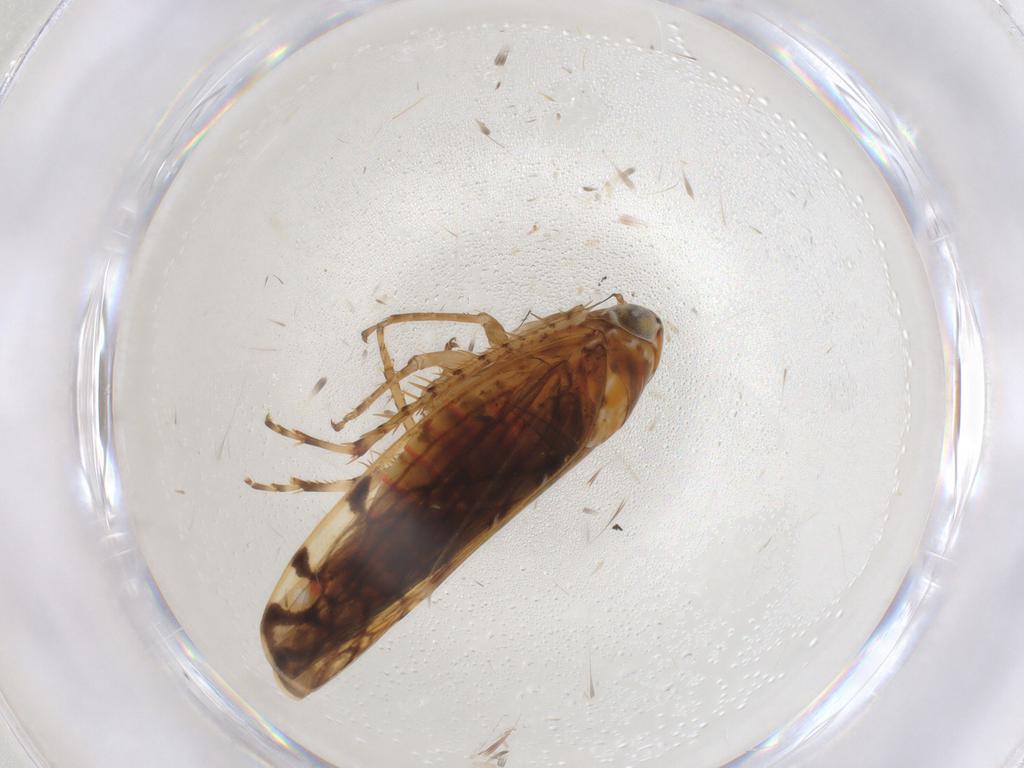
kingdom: Animalia
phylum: Arthropoda
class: Insecta
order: Hemiptera
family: Cicadellidae
